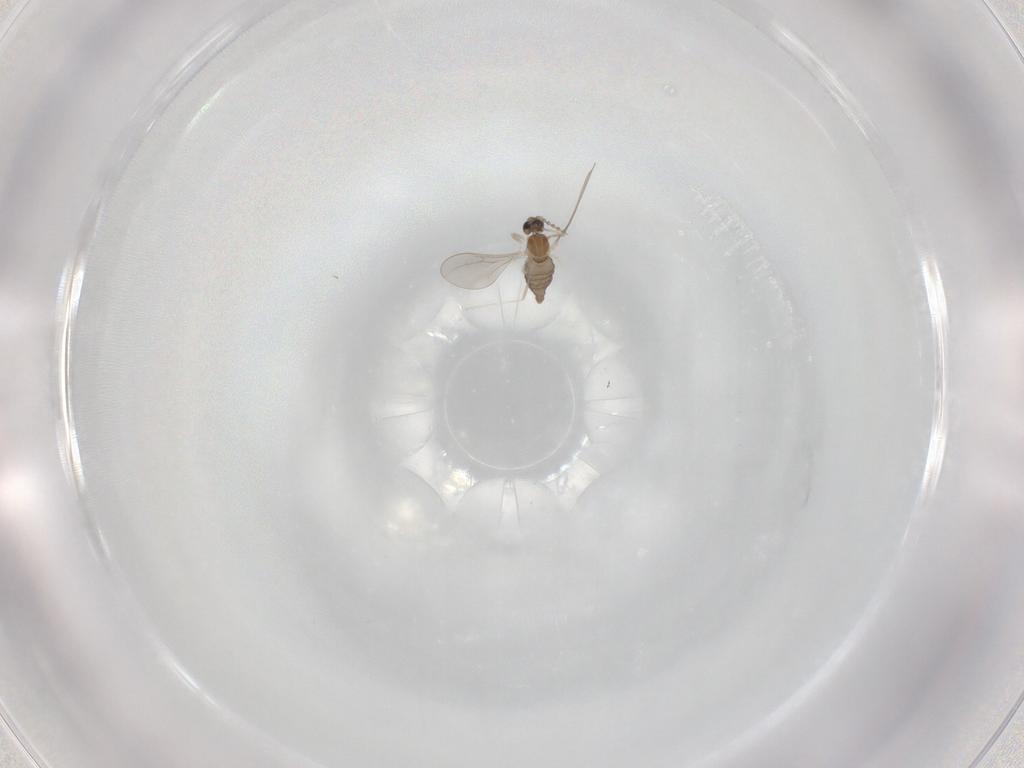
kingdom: Animalia
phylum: Arthropoda
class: Insecta
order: Diptera
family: Cecidomyiidae
